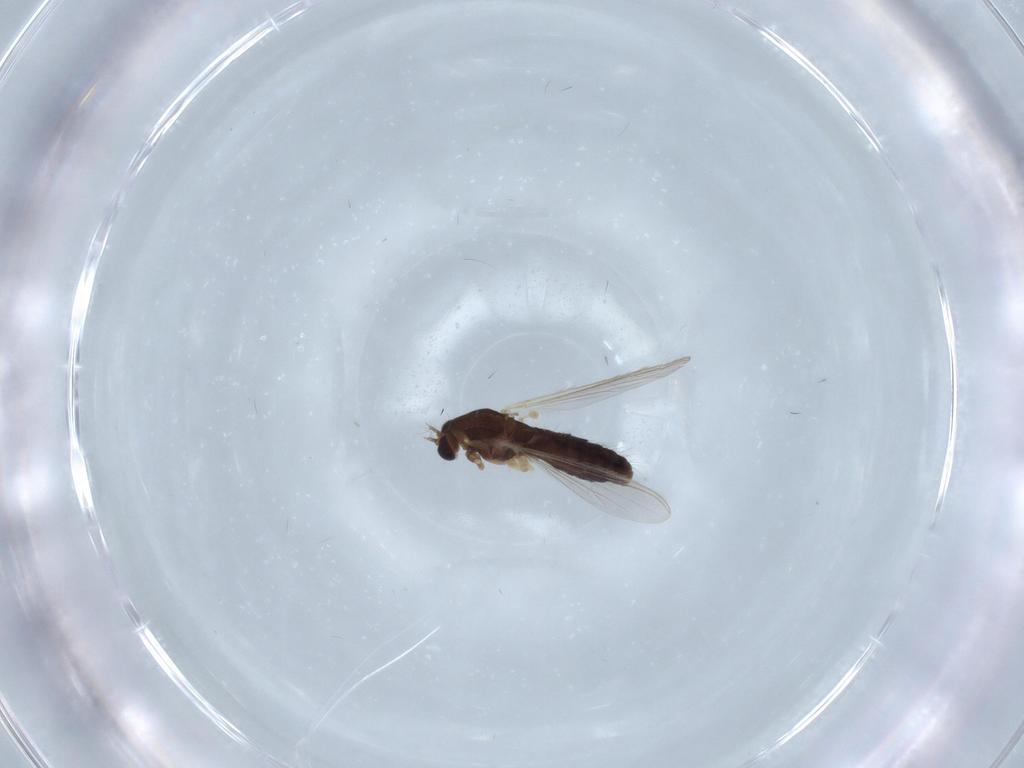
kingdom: Animalia
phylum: Arthropoda
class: Insecta
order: Diptera
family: Chironomidae
